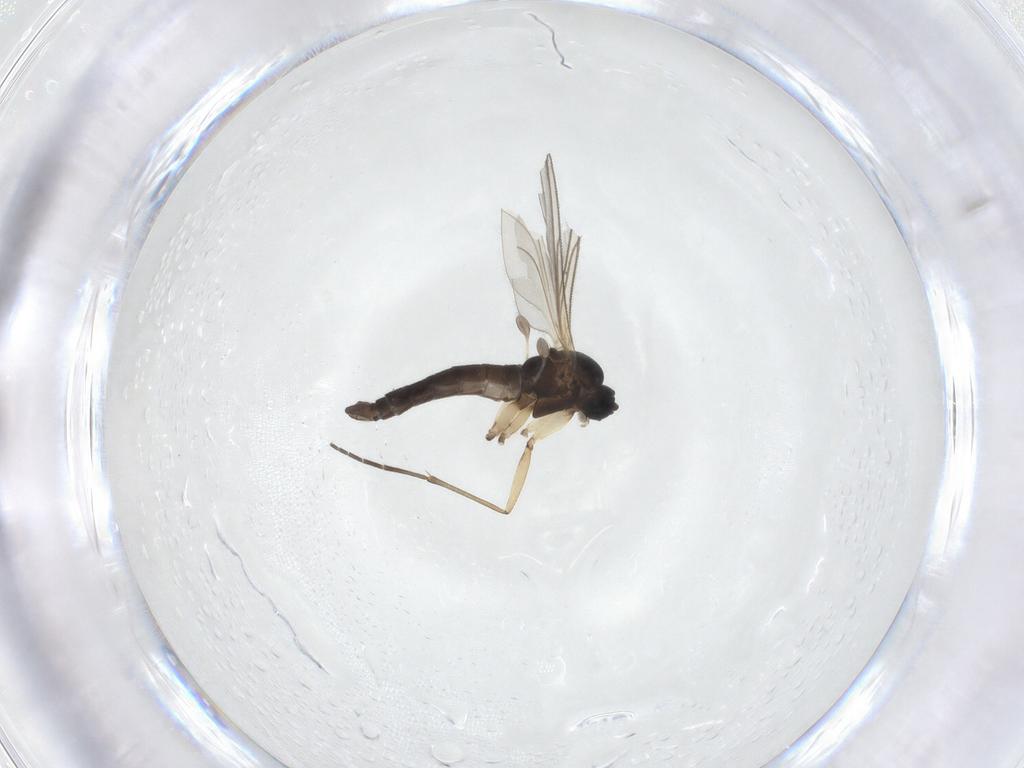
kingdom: Animalia
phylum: Arthropoda
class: Insecta
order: Diptera
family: Sciaridae
